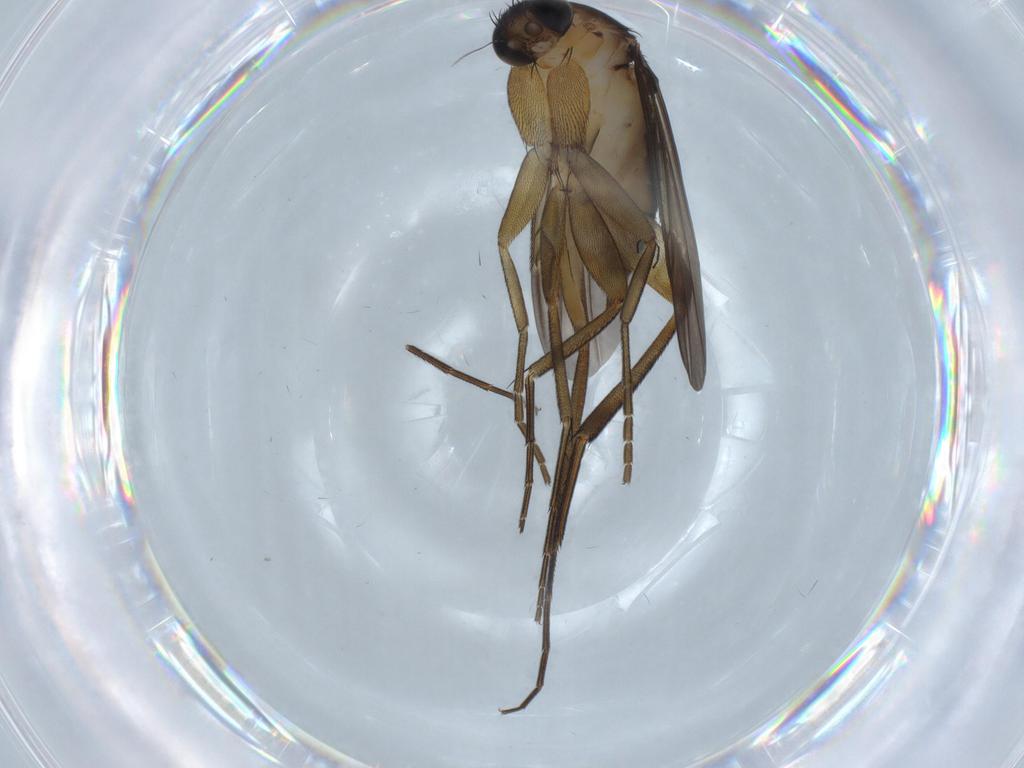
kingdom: Animalia
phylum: Arthropoda
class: Insecta
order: Diptera
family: Phoridae
